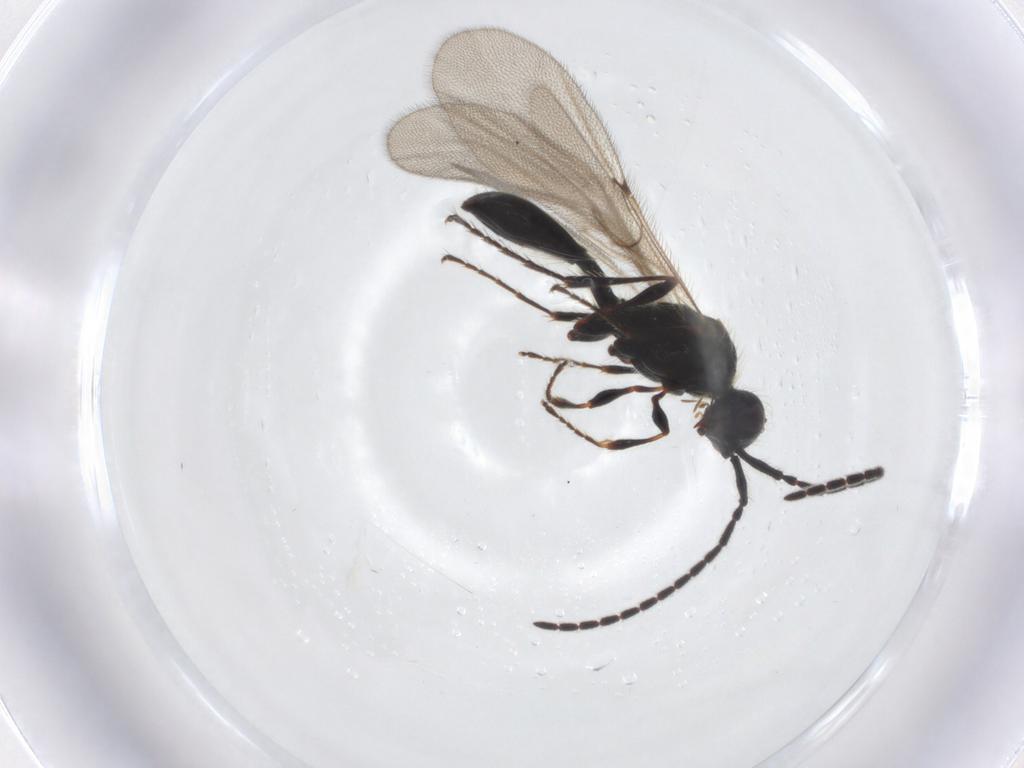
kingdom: Animalia
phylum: Arthropoda
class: Insecta
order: Hymenoptera
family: Diapriidae
